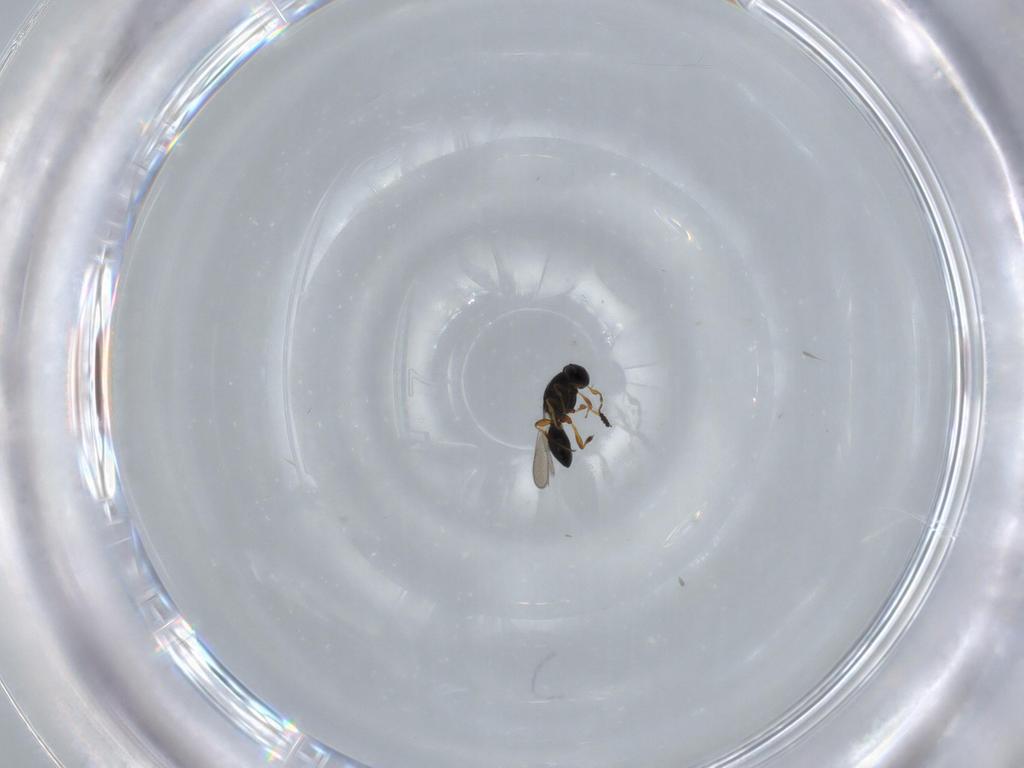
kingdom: Animalia
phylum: Arthropoda
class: Insecta
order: Hymenoptera
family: Platygastridae
